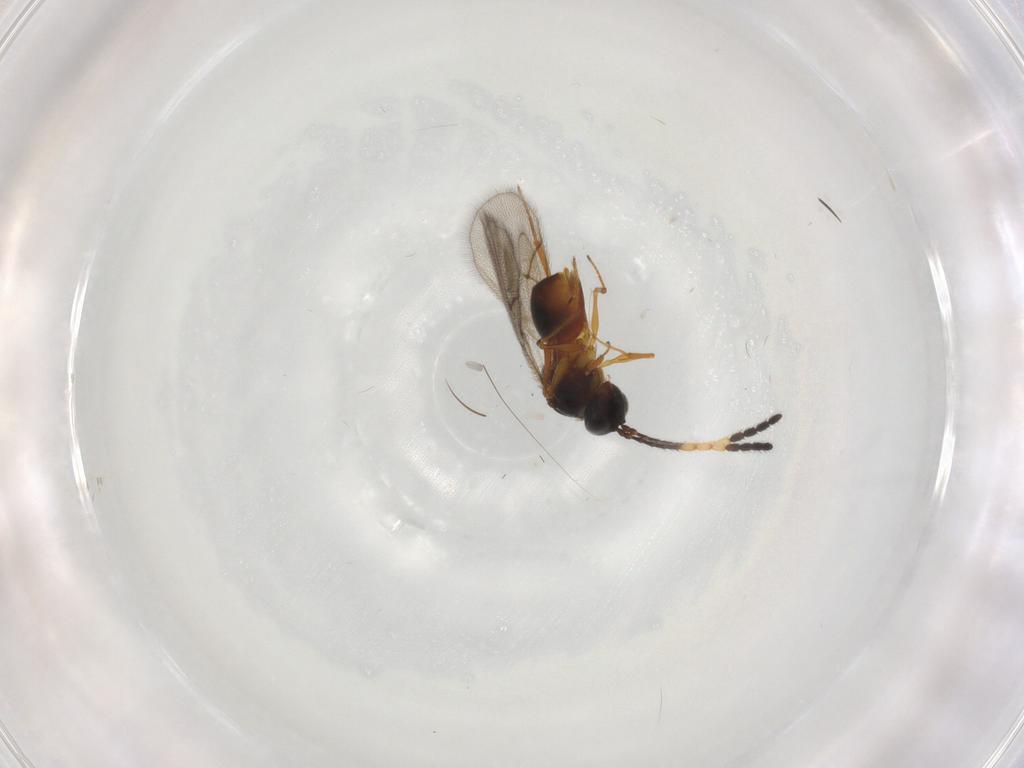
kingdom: Animalia
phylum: Arthropoda
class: Insecta
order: Hymenoptera
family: Figitidae
